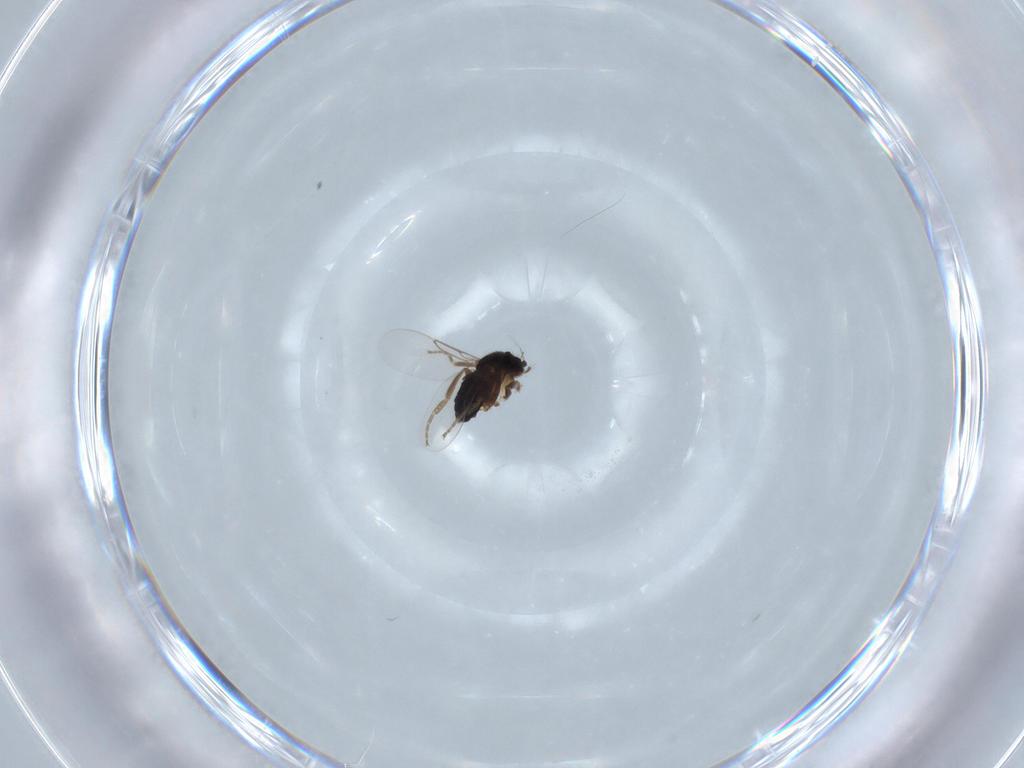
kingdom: Animalia
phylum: Arthropoda
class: Insecta
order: Diptera
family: Phoridae
